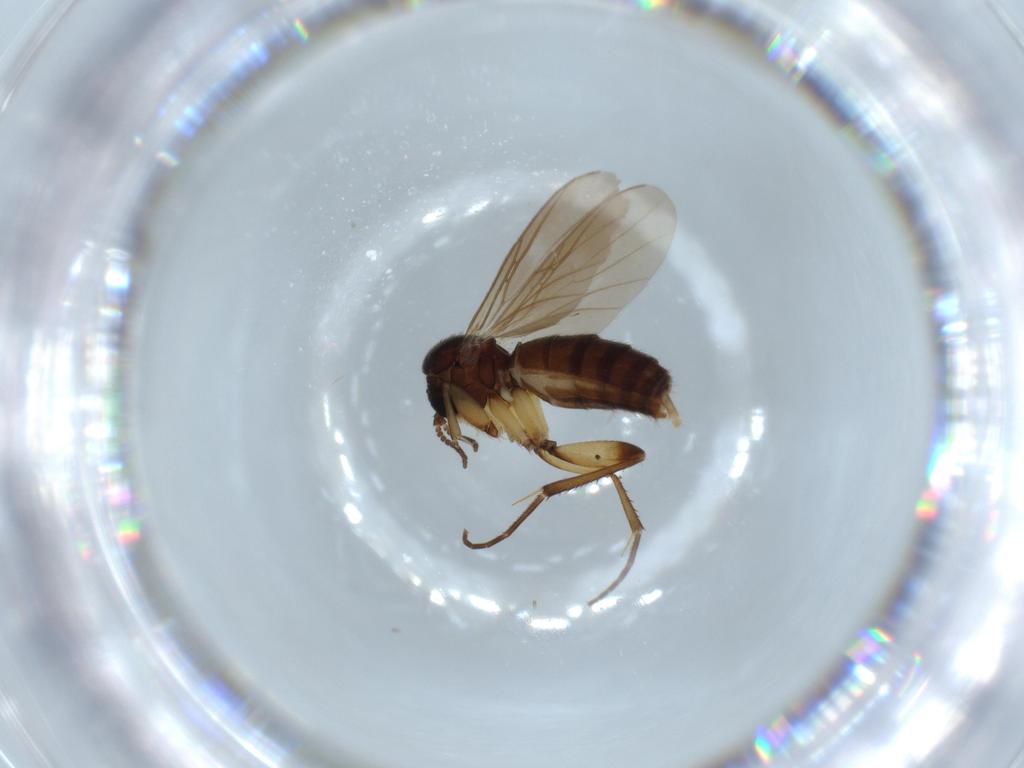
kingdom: Animalia
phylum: Arthropoda
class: Insecta
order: Diptera
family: Mycetophilidae
